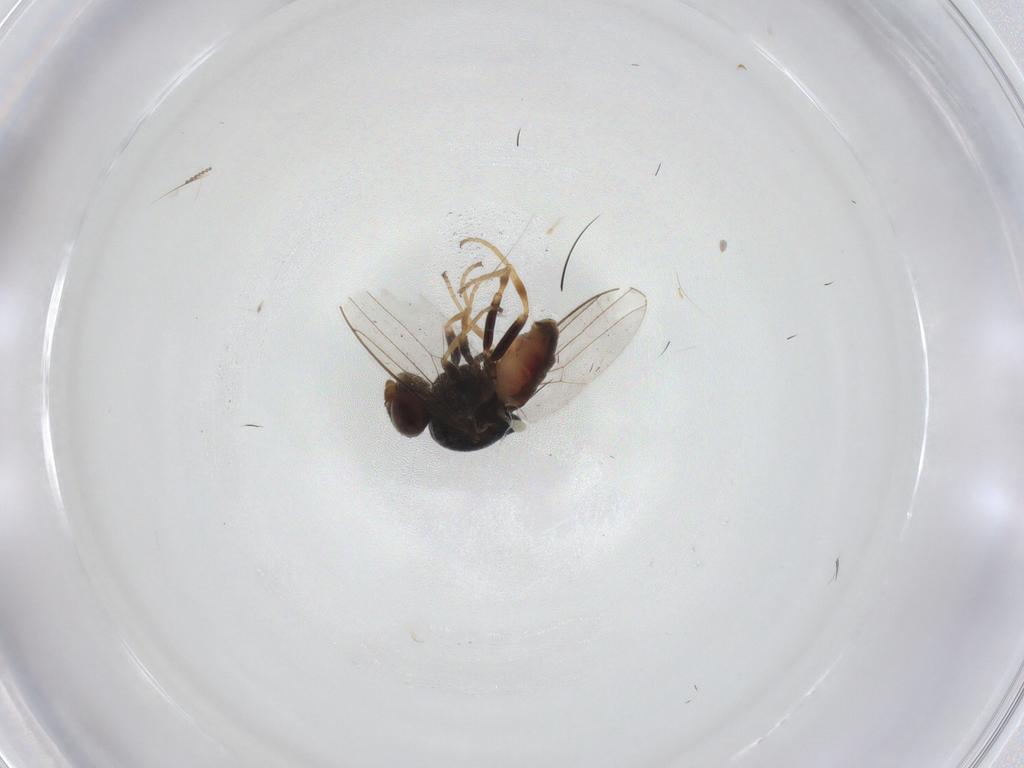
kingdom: Animalia
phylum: Arthropoda
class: Insecta
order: Diptera
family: Chloropidae
